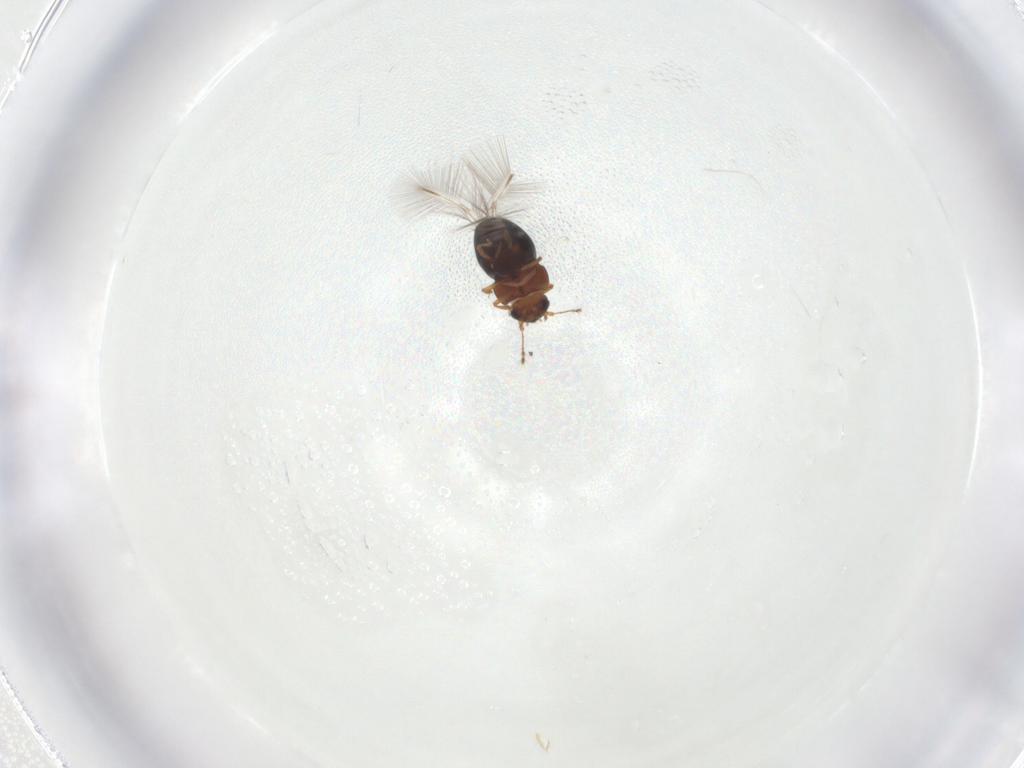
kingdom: Animalia
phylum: Arthropoda
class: Insecta
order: Coleoptera
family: Ptiliidae
